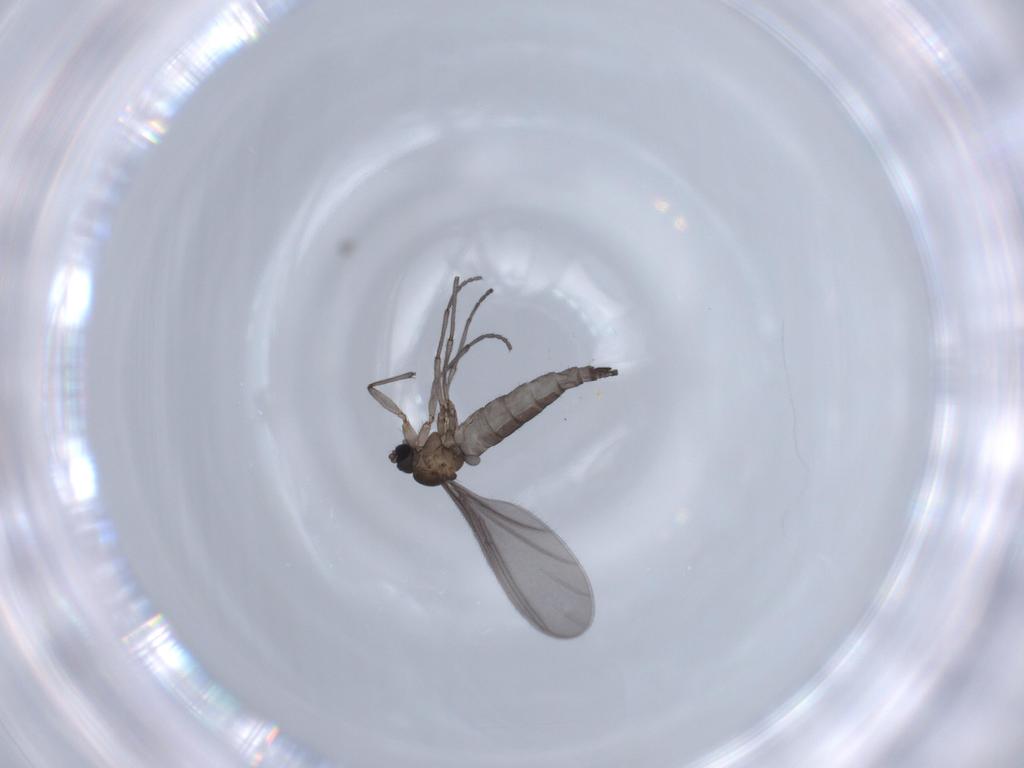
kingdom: Animalia
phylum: Arthropoda
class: Insecta
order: Diptera
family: Sciaridae
